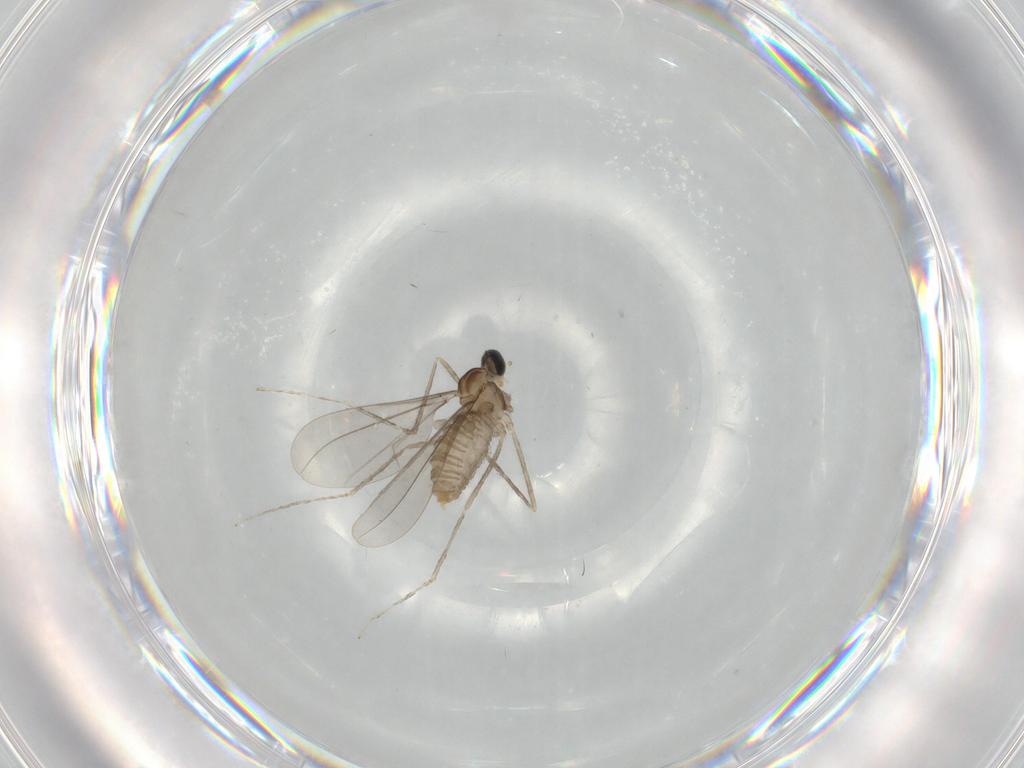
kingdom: Animalia
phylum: Arthropoda
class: Insecta
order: Diptera
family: Cecidomyiidae
